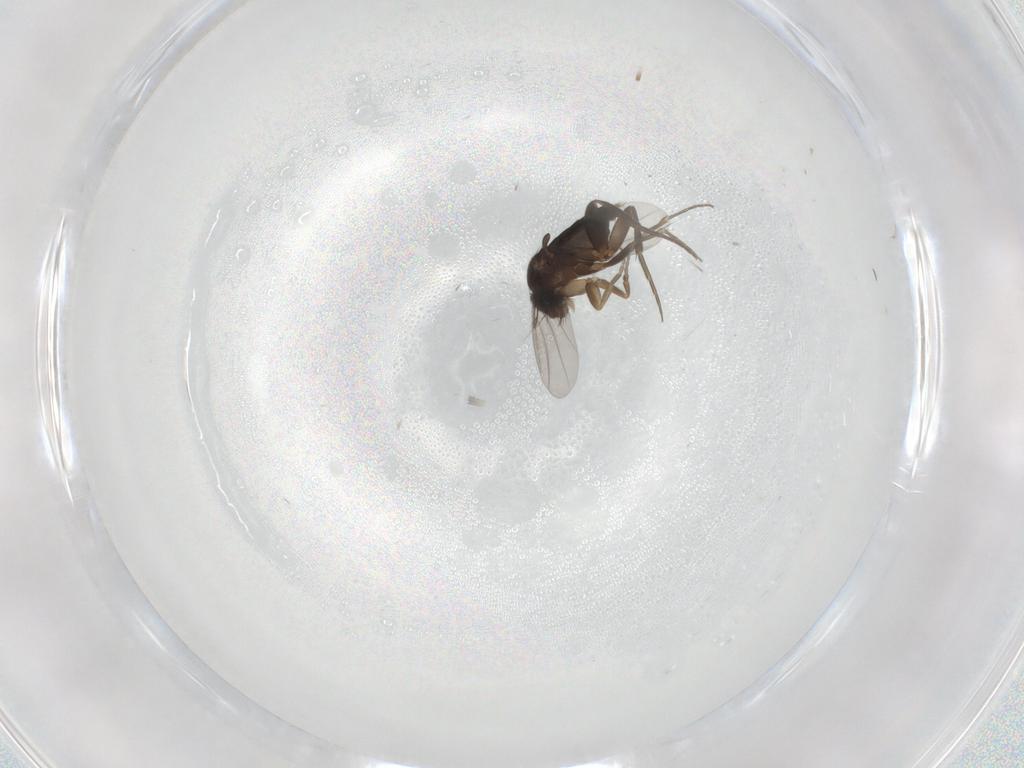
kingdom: Animalia
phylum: Arthropoda
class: Insecta
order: Diptera
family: Phoridae
